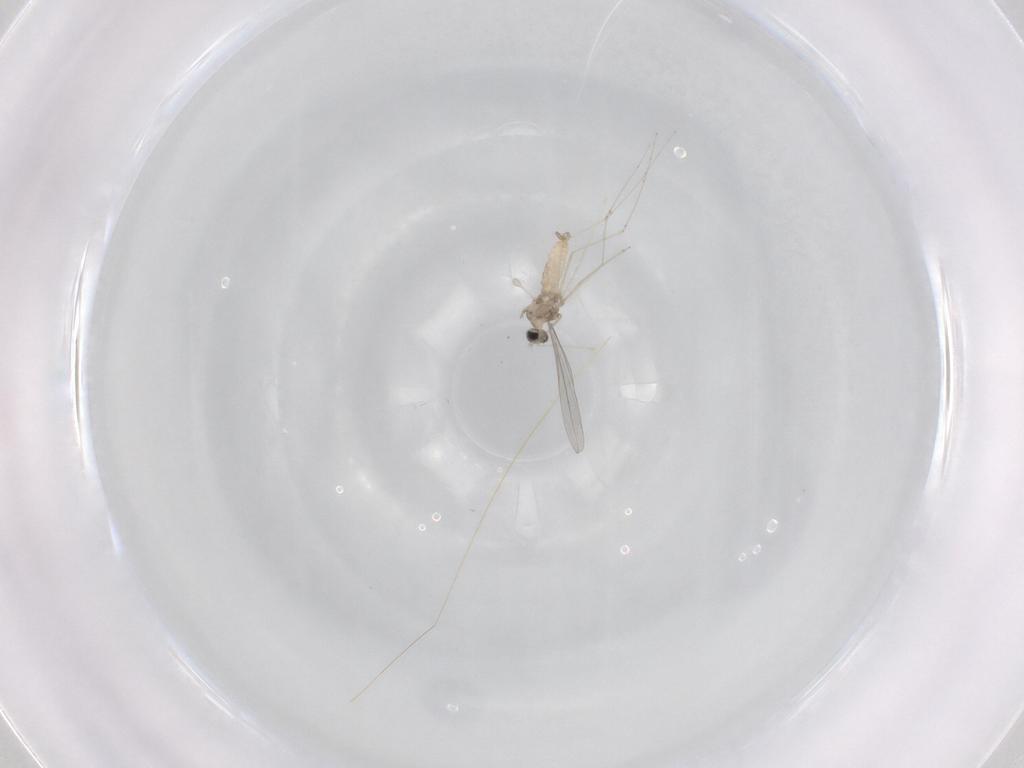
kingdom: Animalia
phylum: Arthropoda
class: Insecta
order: Diptera
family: Cecidomyiidae
